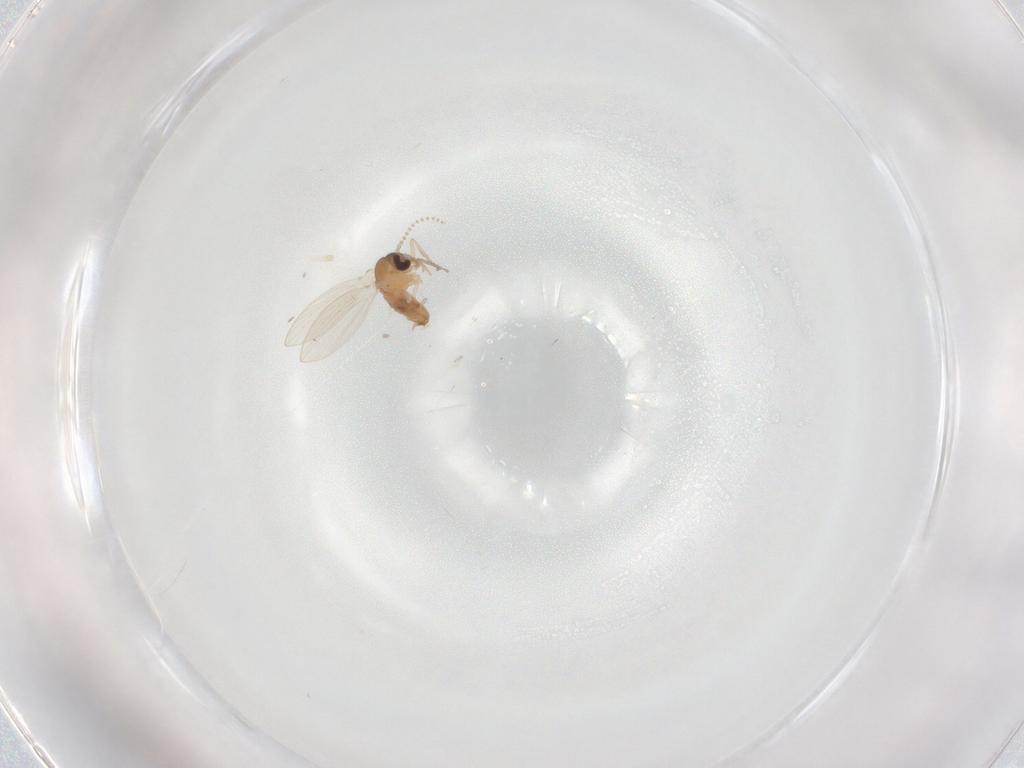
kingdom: Animalia
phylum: Arthropoda
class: Insecta
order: Diptera
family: Psychodidae
